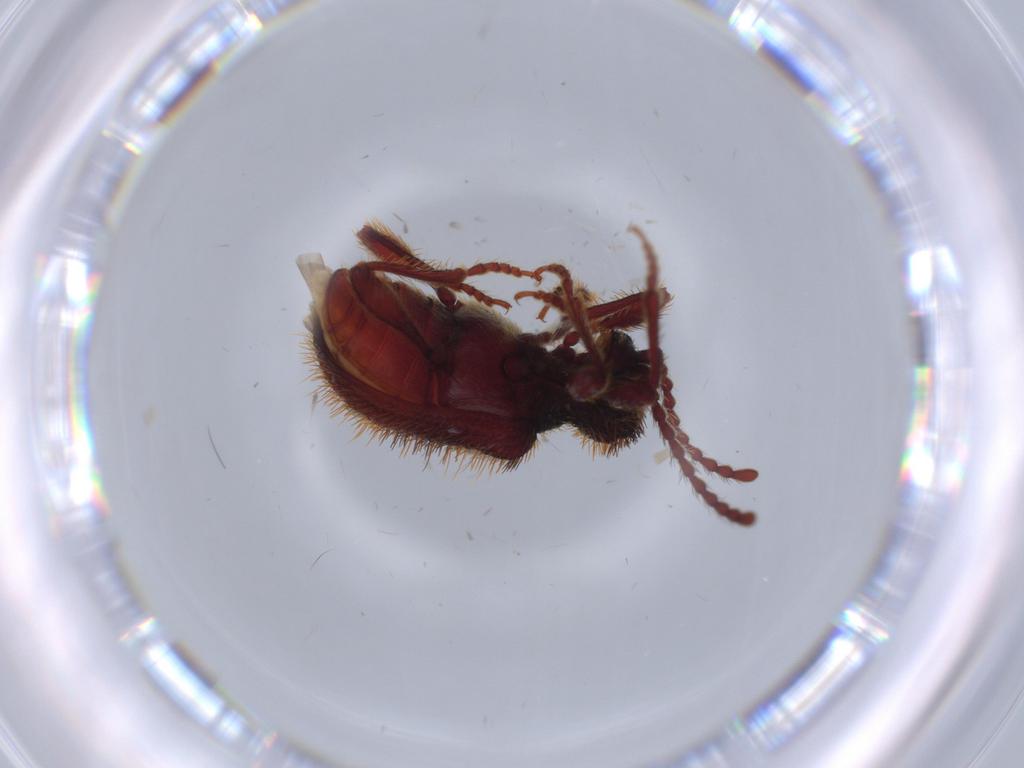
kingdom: Animalia
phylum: Arthropoda
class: Insecta
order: Coleoptera
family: Ptinidae
